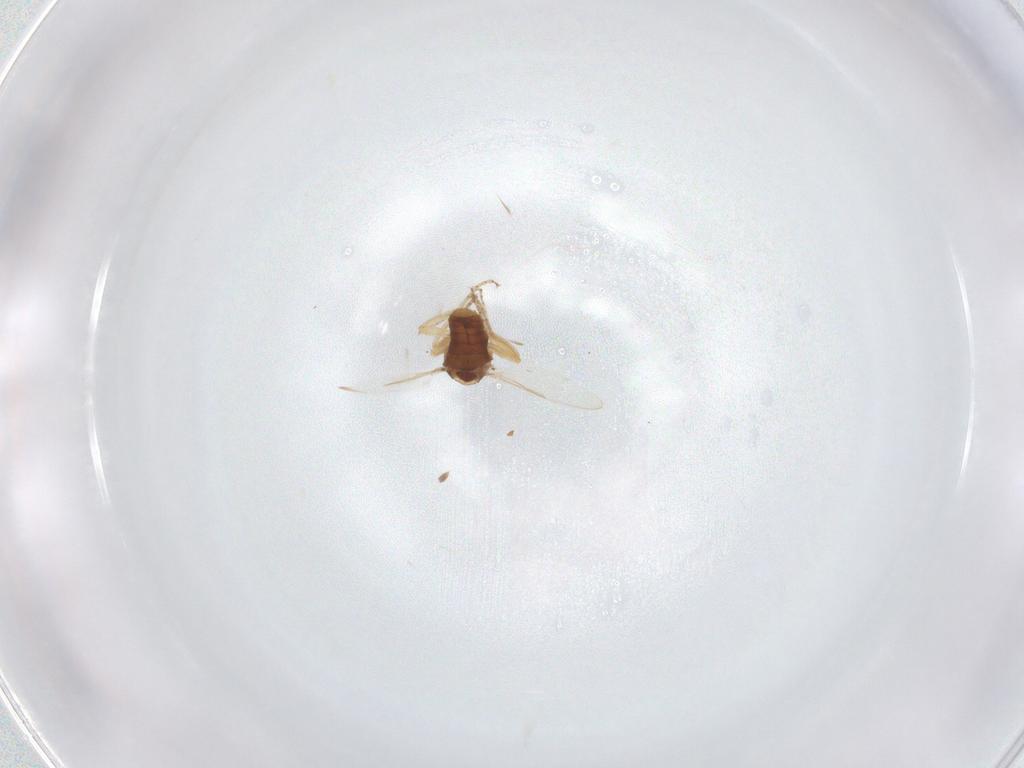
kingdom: Animalia
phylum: Arthropoda
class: Insecta
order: Diptera
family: Ceratopogonidae
